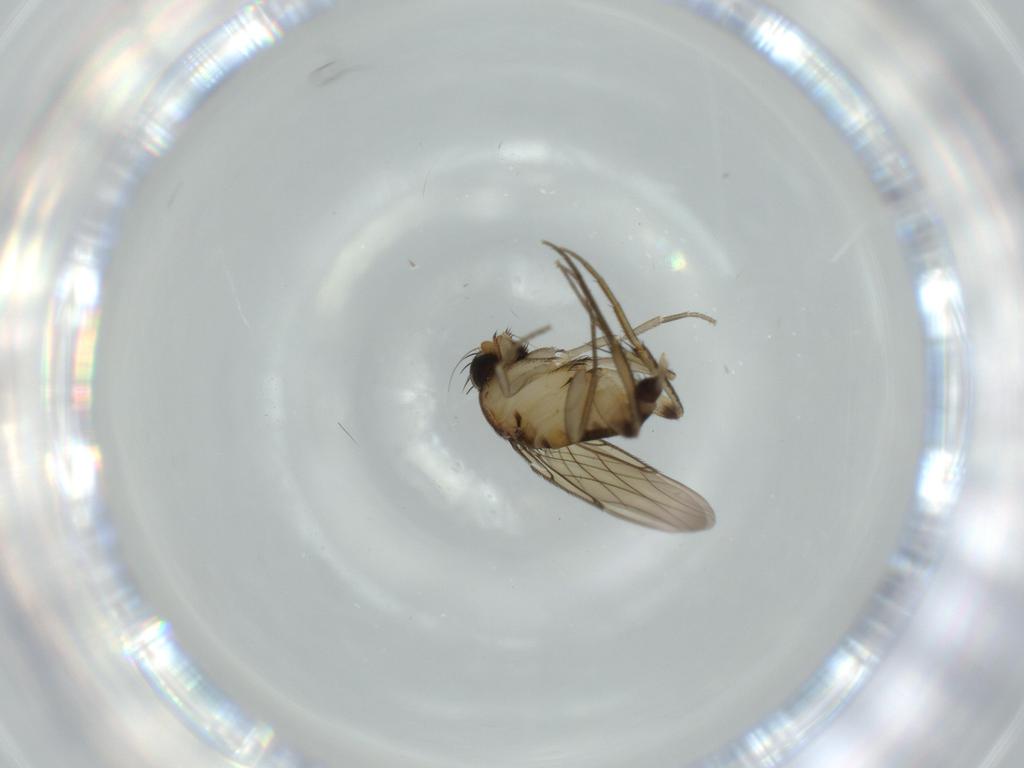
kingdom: Animalia
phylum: Arthropoda
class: Insecta
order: Diptera
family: Phoridae
